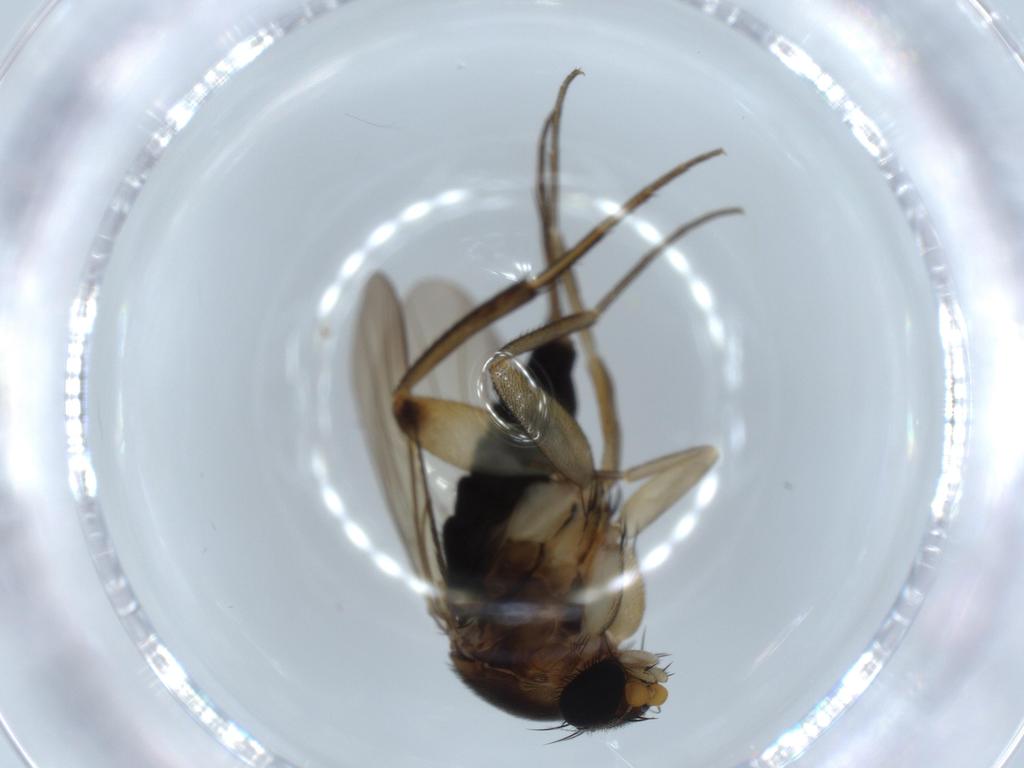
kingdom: Animalia
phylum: Arthropoda
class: Insecta
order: Diptera
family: Phoridae
